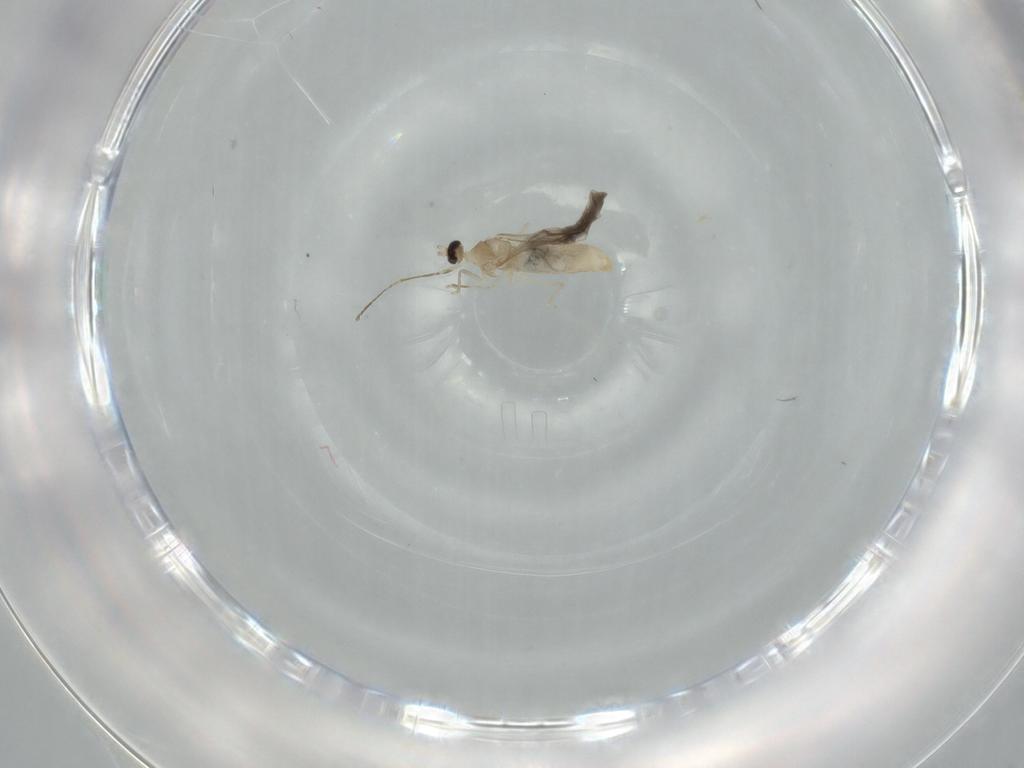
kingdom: Animalia
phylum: Arthropoda
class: Insecta
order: Diptera
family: Cecidomyiidae
